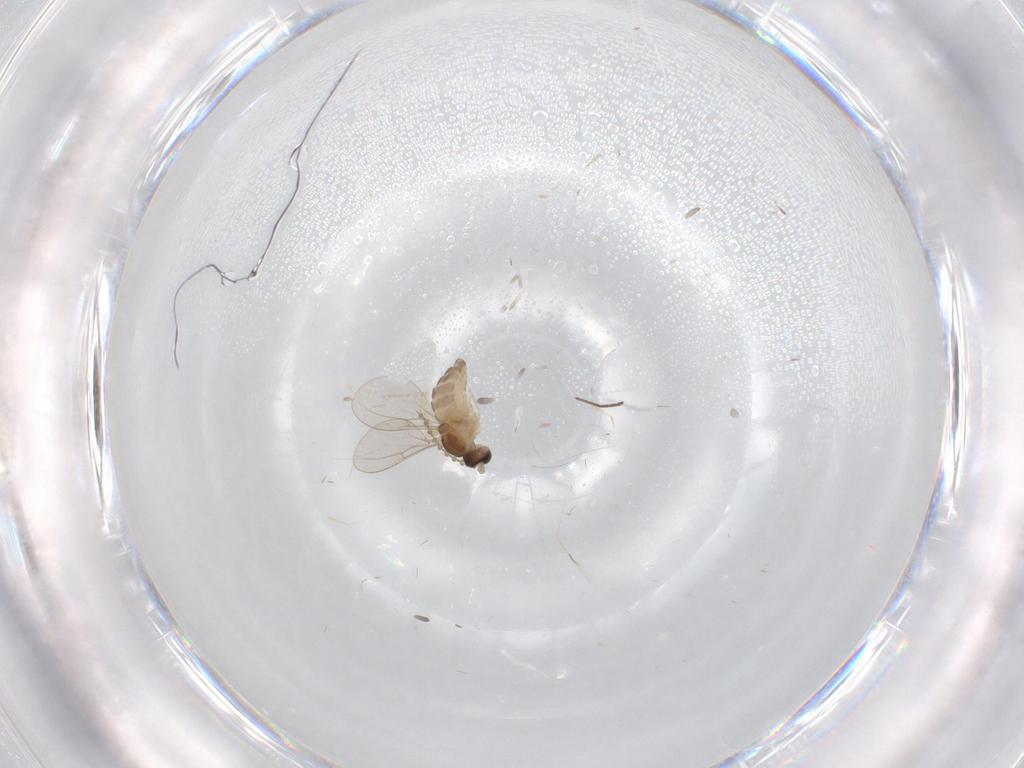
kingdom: Animalia
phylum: Arthropoda
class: Insecta
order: Diptera
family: Cecidomyiidae
